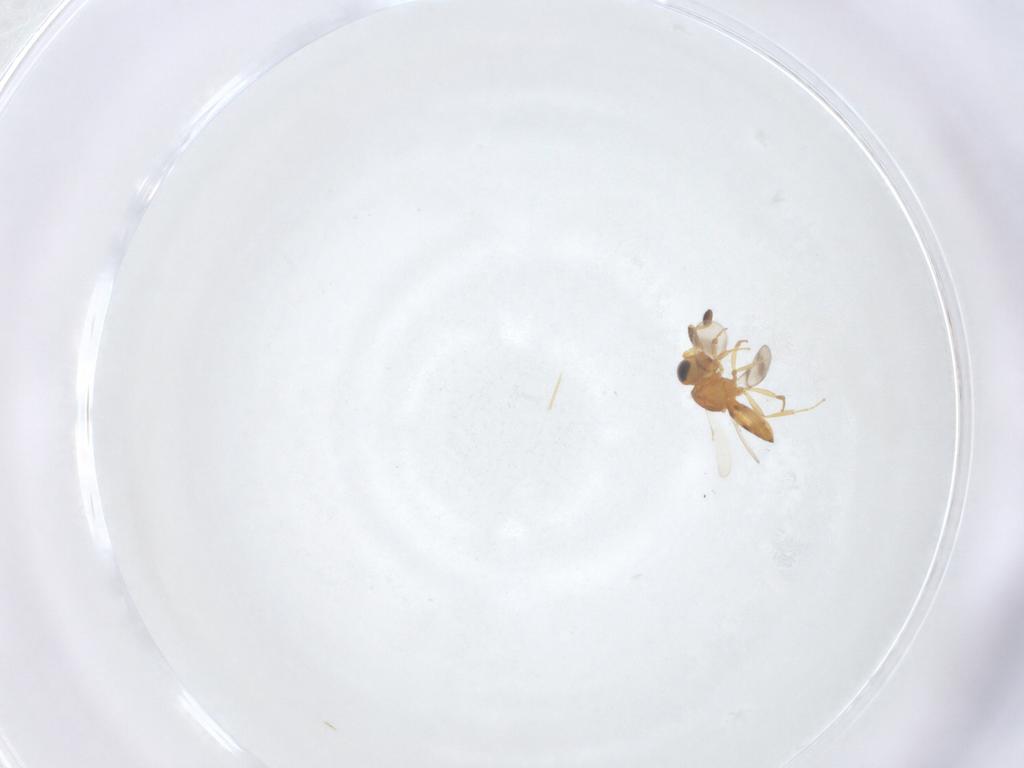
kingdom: Animalia
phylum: Arthropoda
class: Insecta
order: Hymenoptera
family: Scelionidae
